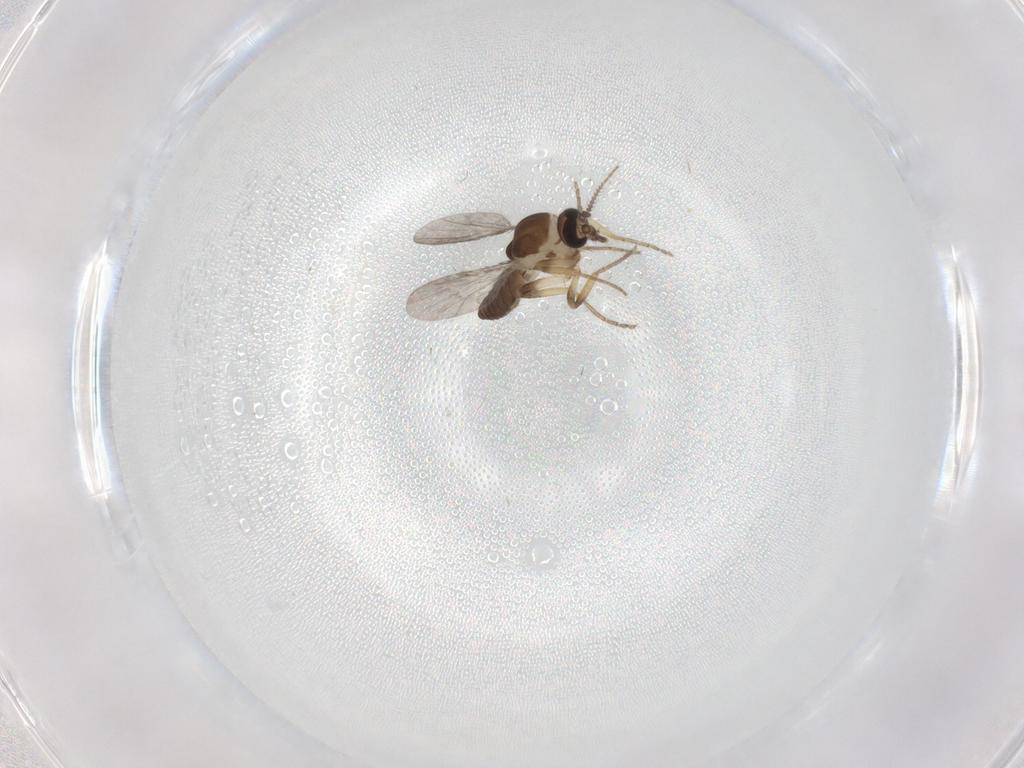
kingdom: Animalia
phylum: Arthropoda
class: Insecta
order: Diptera
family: Ceratopogonidae
